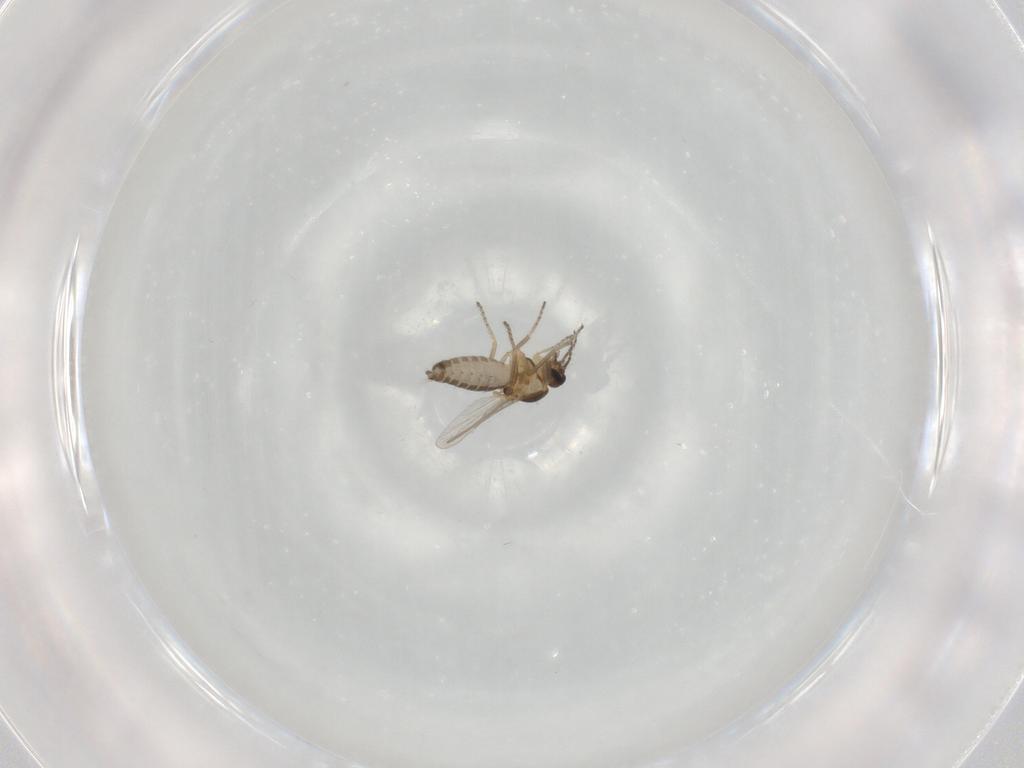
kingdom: Animalia
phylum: Arthropoda
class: Insecta
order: Diptera
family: Ceratopogonidae
